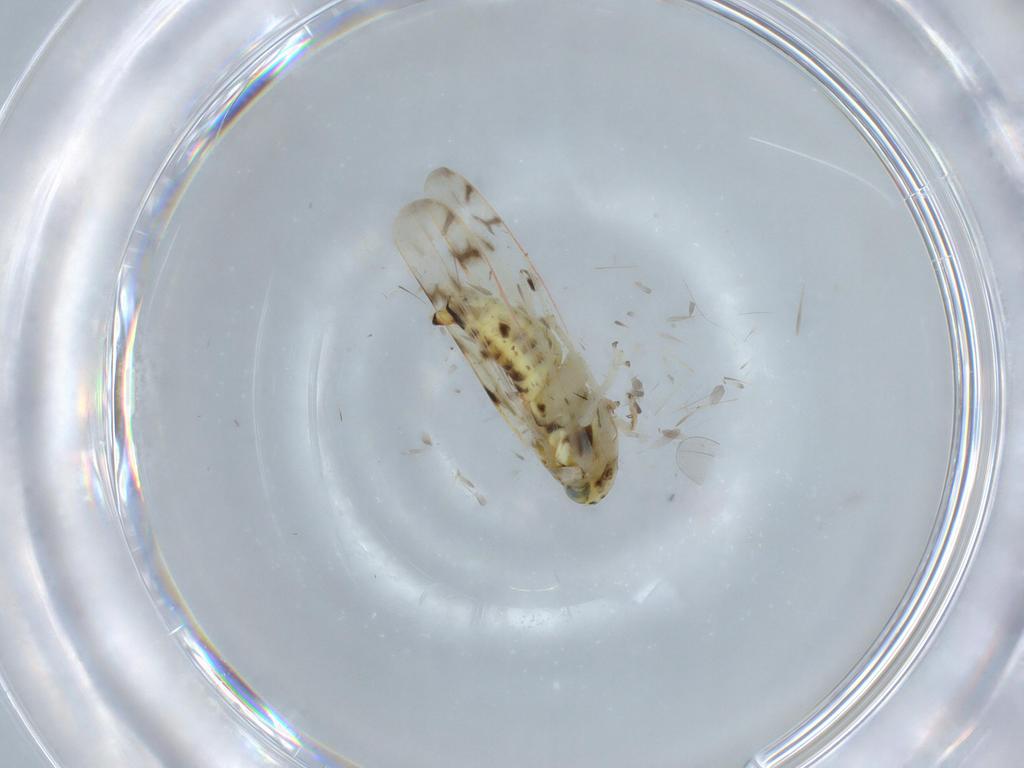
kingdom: Animalia
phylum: Arthropoda
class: Insecta
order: Hemiptera
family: Cicadellidae
